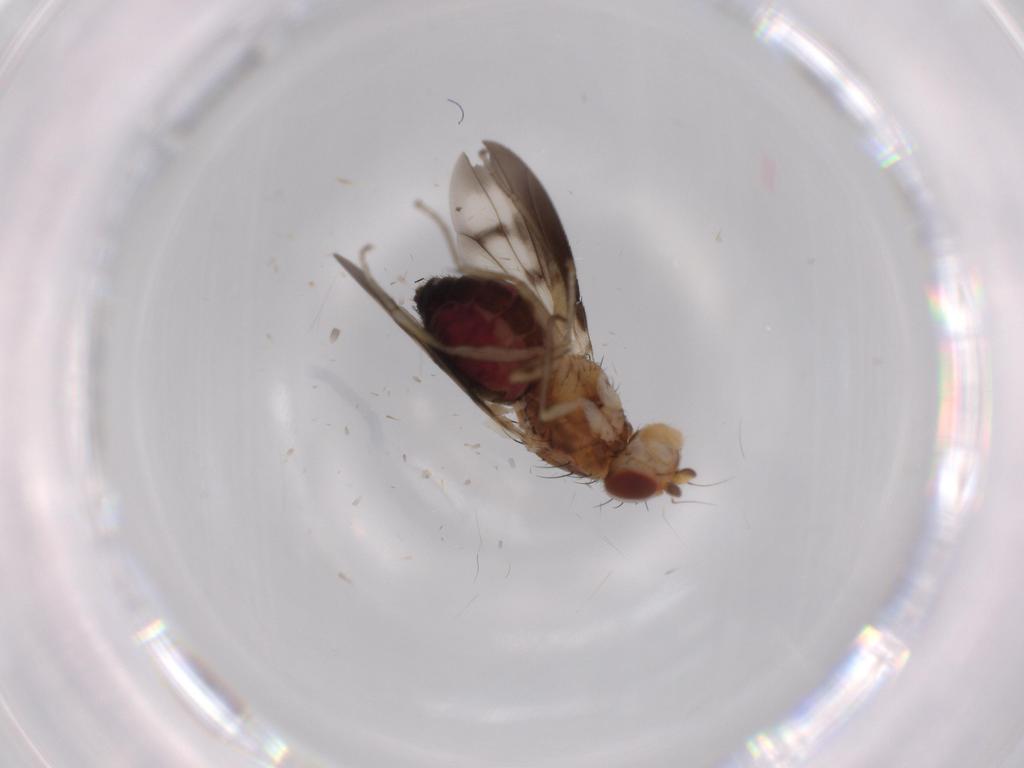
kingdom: Animalia
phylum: Arthropoda
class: Insecta
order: Diptera
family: Heleomyzidae
